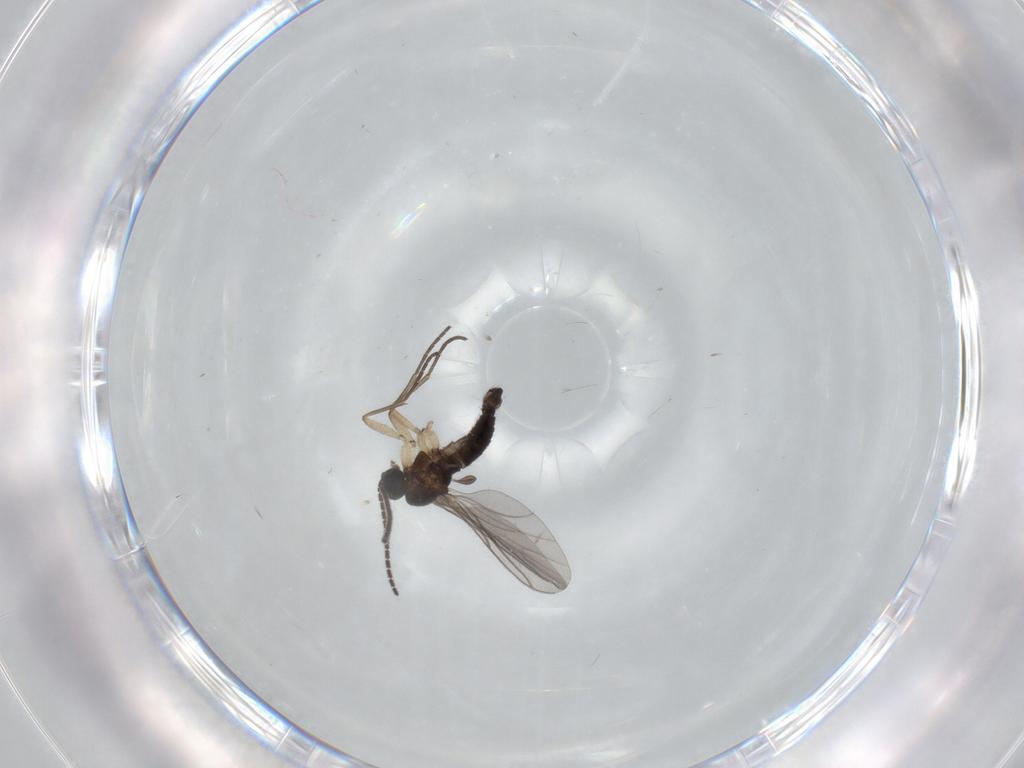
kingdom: Animalia
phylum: Arthropoda
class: Insecta
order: Diptera
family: Sciaridae
